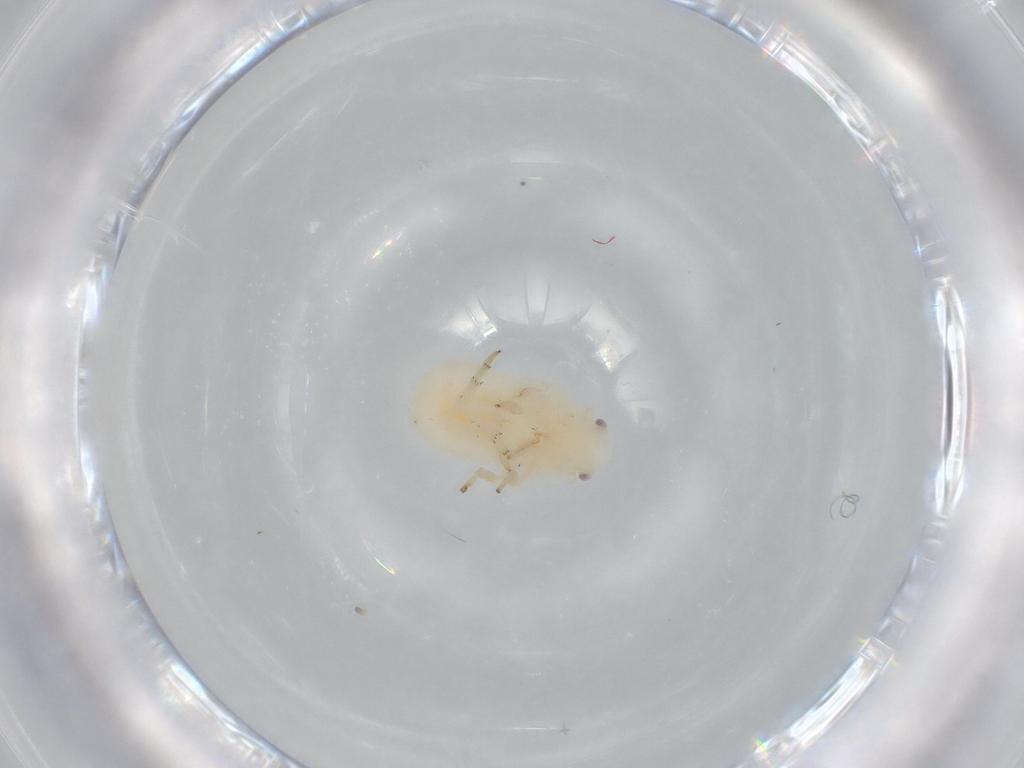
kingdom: Animalia
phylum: Arthropoda
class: Insecta
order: Hemiptera
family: Flatidae
